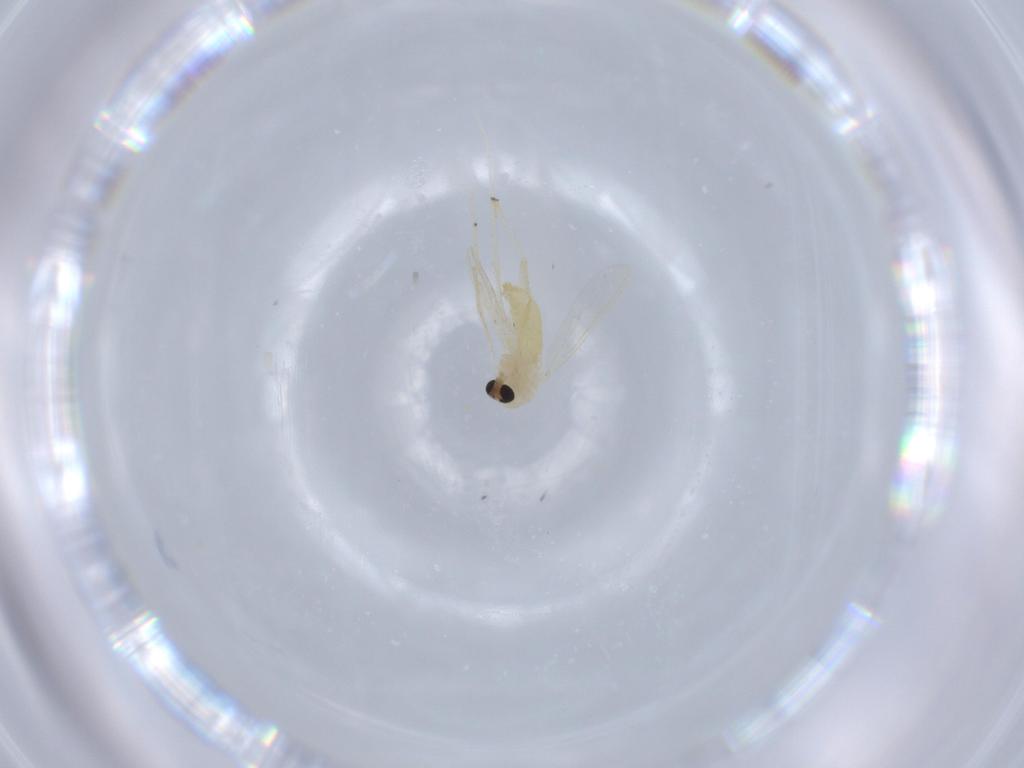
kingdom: Animalia
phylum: Arthropoda
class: Insecta
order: Diptera
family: Chironomidae
